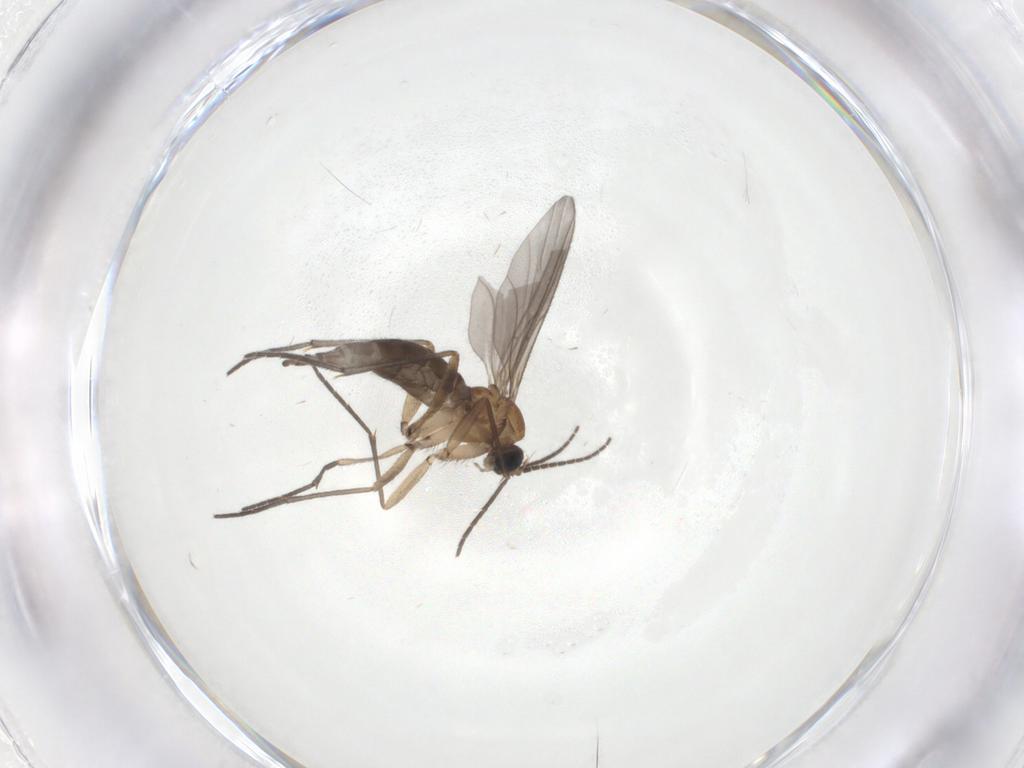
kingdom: Animalia
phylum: Arthropoda
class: Insecta
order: Diptera
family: Sciaridae
